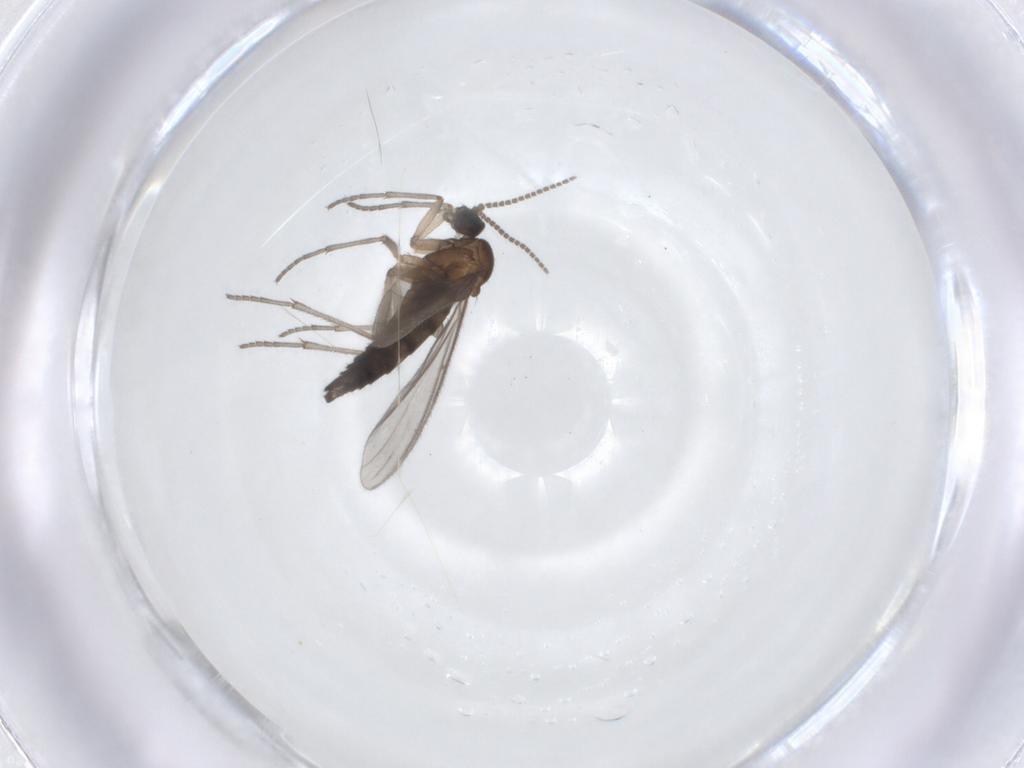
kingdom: Animalia
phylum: Arthropoda
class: Insecta
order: Diptera
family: Sciaridae
